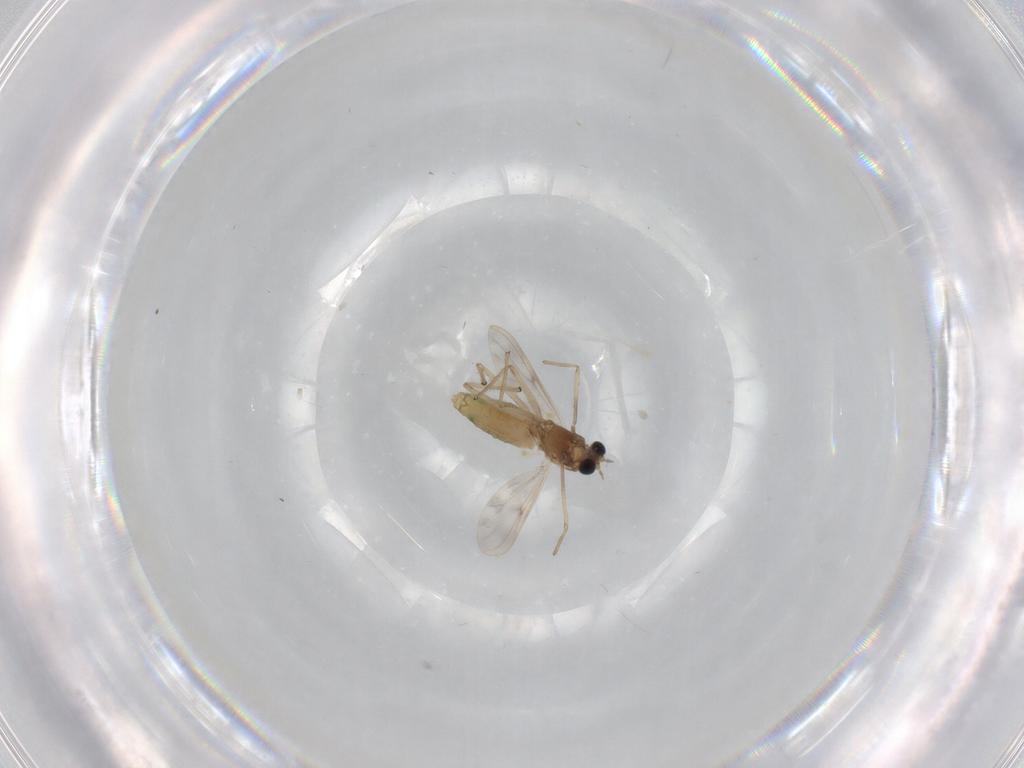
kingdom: Animalia
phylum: Arthropoda
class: Insecta
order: Diptera
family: Chironomidae
